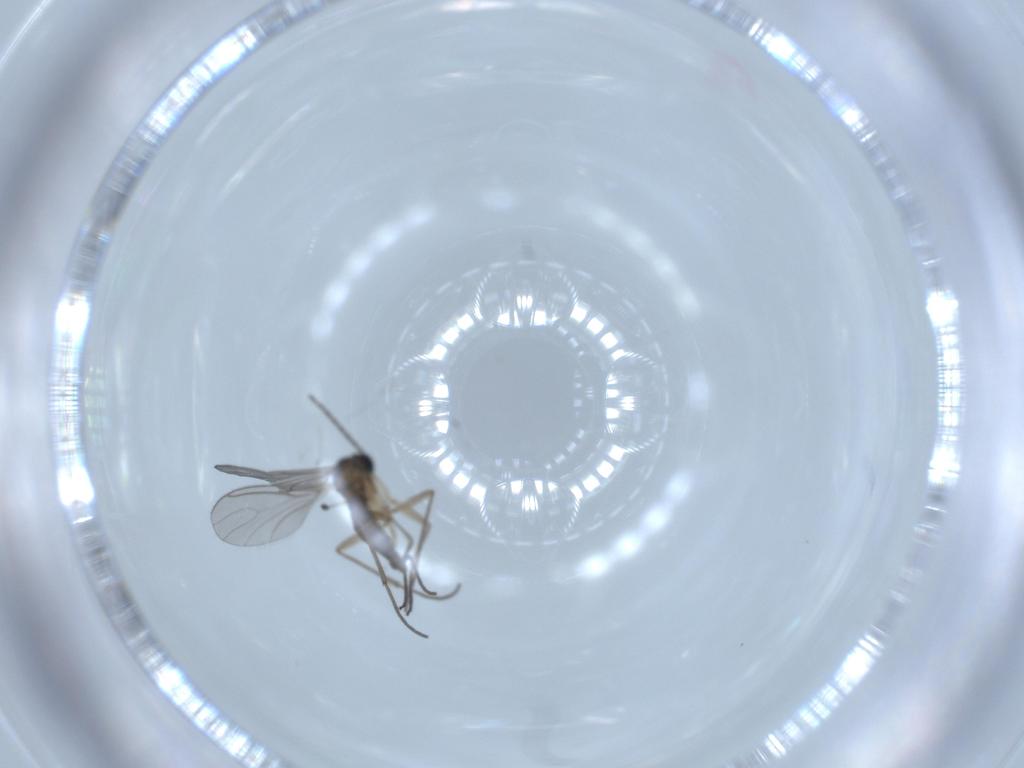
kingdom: Animalia
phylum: Arthropoda
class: Insecta
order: Diptera
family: Sciaridae
